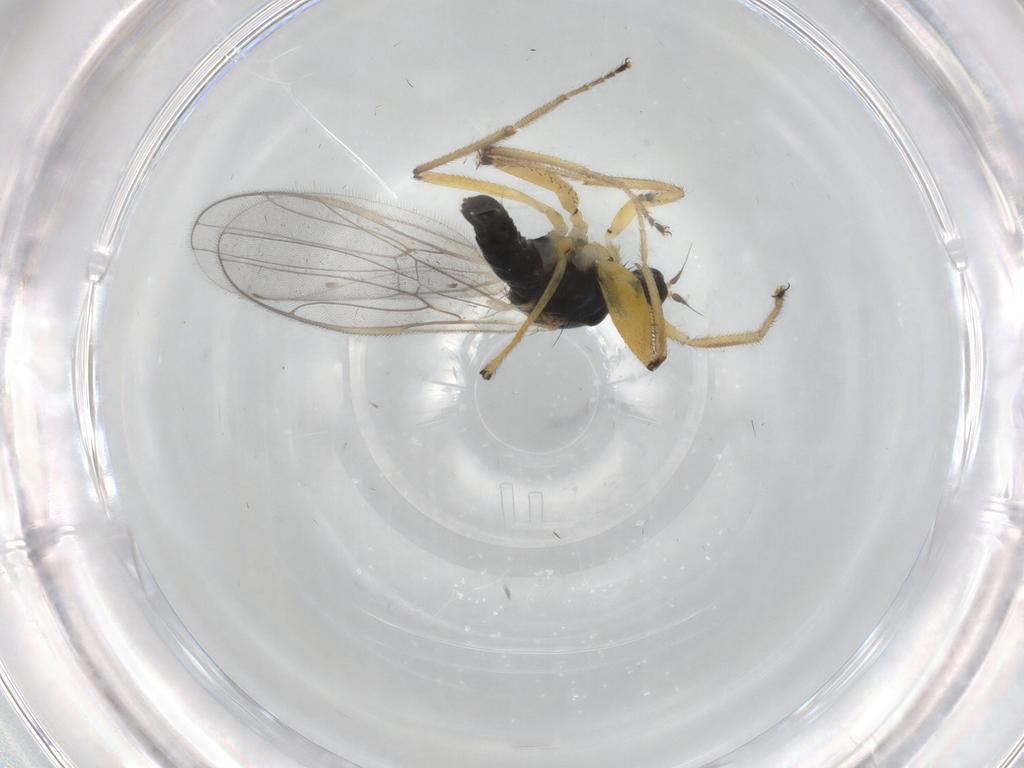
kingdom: Animalia
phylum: Arthropoda
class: Insecta
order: Diptera
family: Hybotidae
